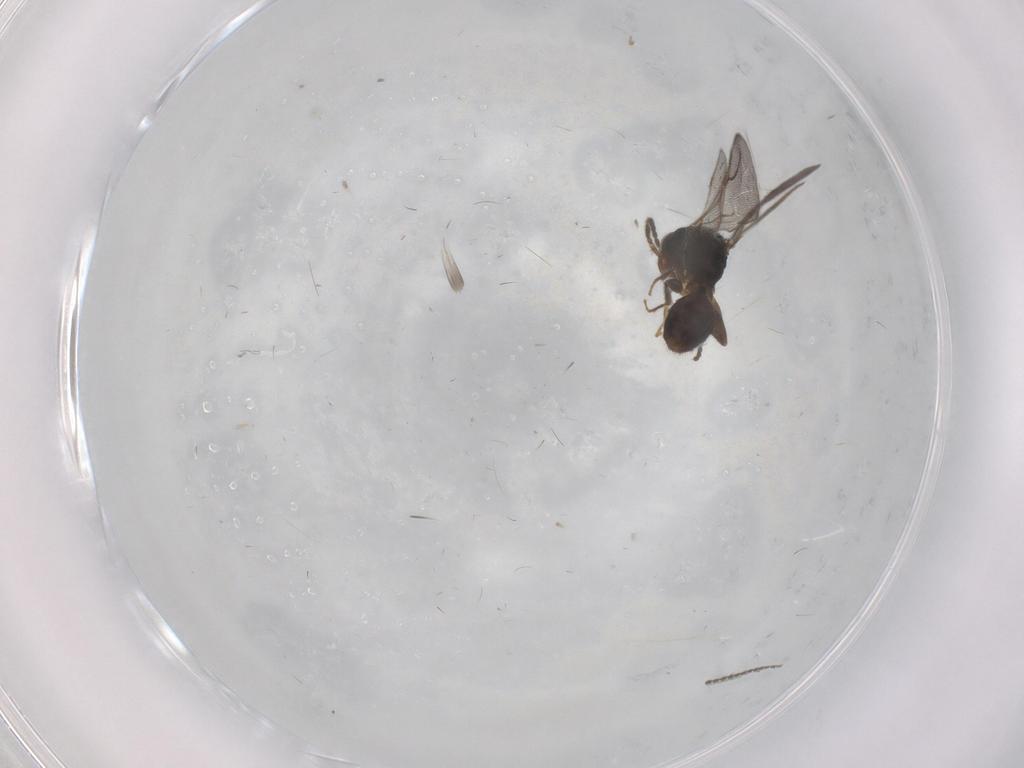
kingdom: Animalia
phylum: Arthropoda
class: Insecta
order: Hymenoptera
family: Bethylidae
